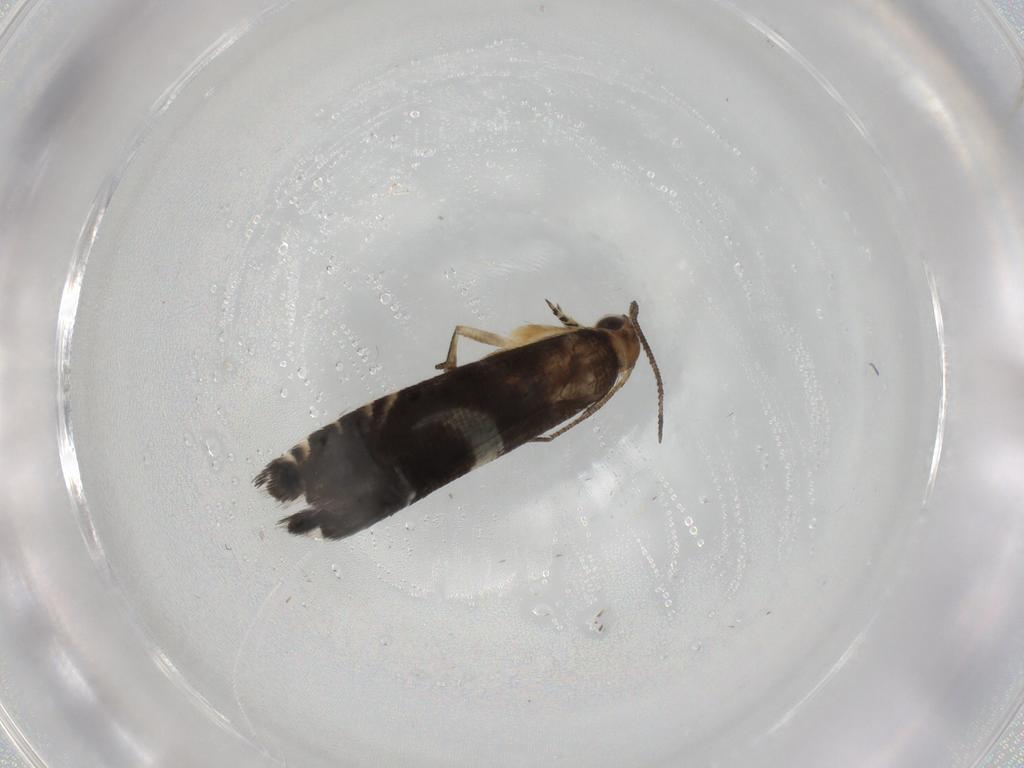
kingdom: Animalia
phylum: Arthropoda
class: Insecta
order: Lepidoptera
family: Glyphipterigidae
